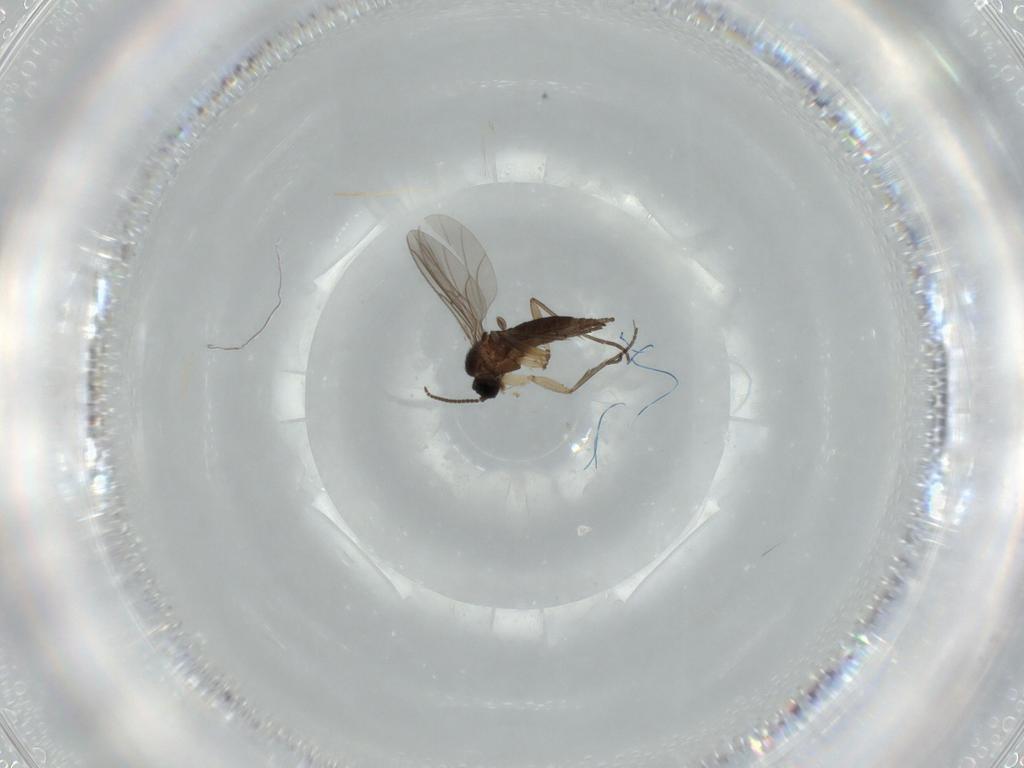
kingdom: Animalia
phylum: Arthropoda
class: Insecta
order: Diptera
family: Sciaridae
